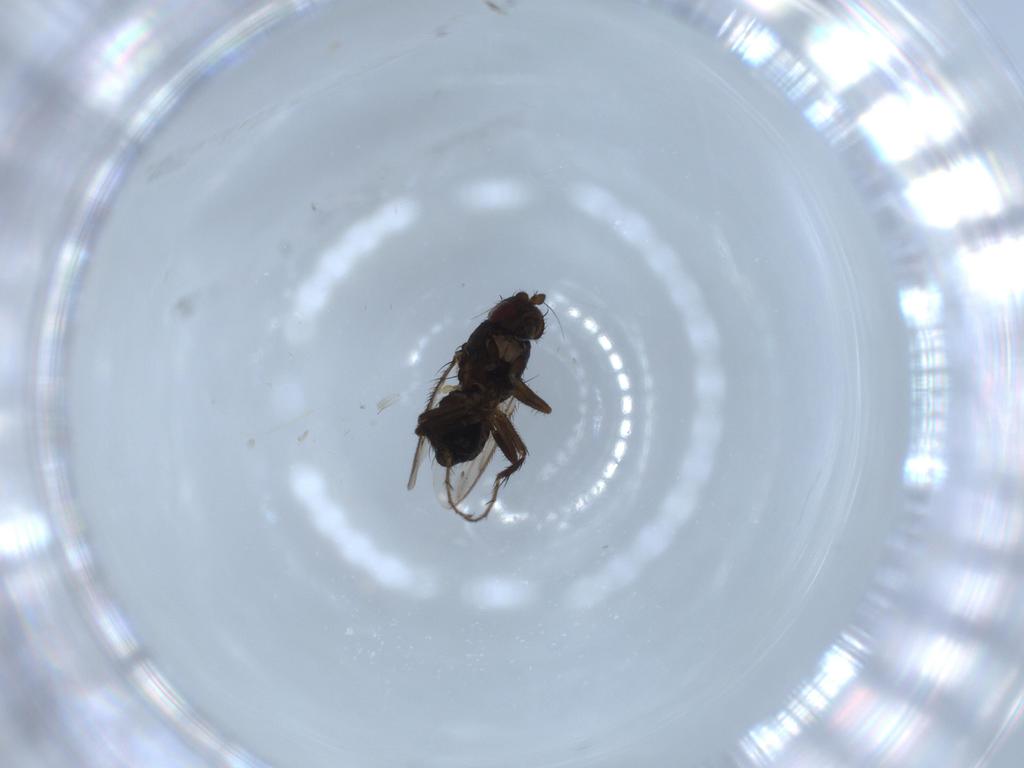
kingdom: Animalia
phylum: Arthropoda
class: Insecta
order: Diptera
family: Sphaeroceridae
